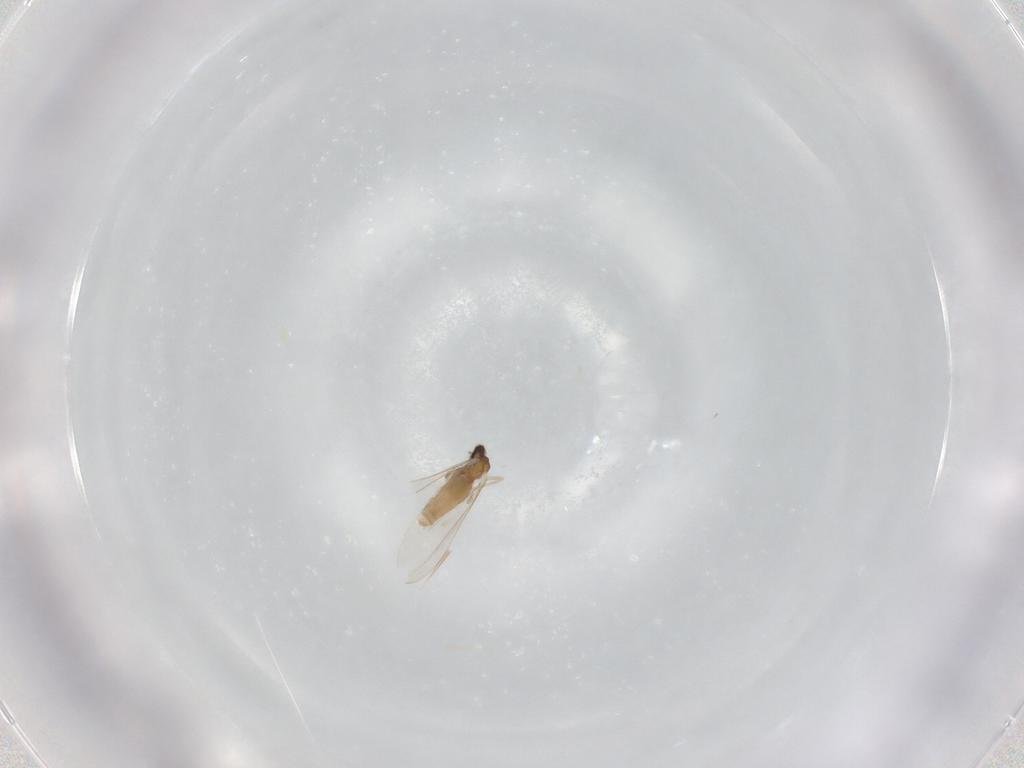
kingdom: Animalia
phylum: Arthropoda
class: Insecta
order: Diptera
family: Cecidomyiidae
